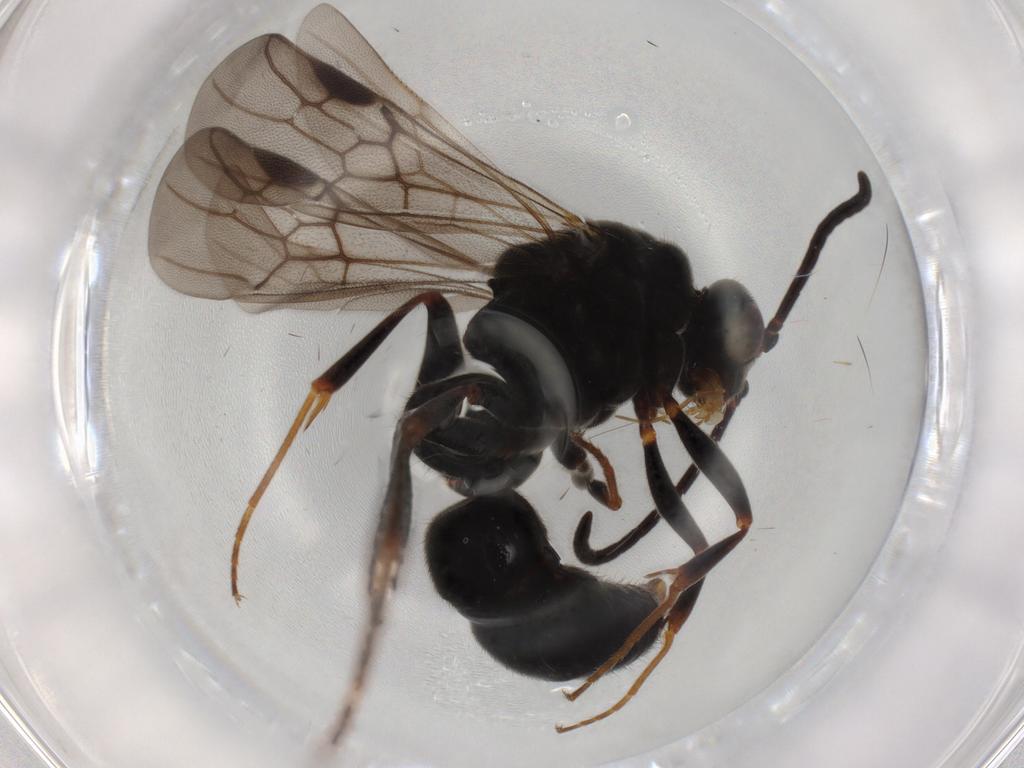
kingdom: Animalia
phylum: Arthropoda
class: Insecta
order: Hymenoptera
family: Formicidae
